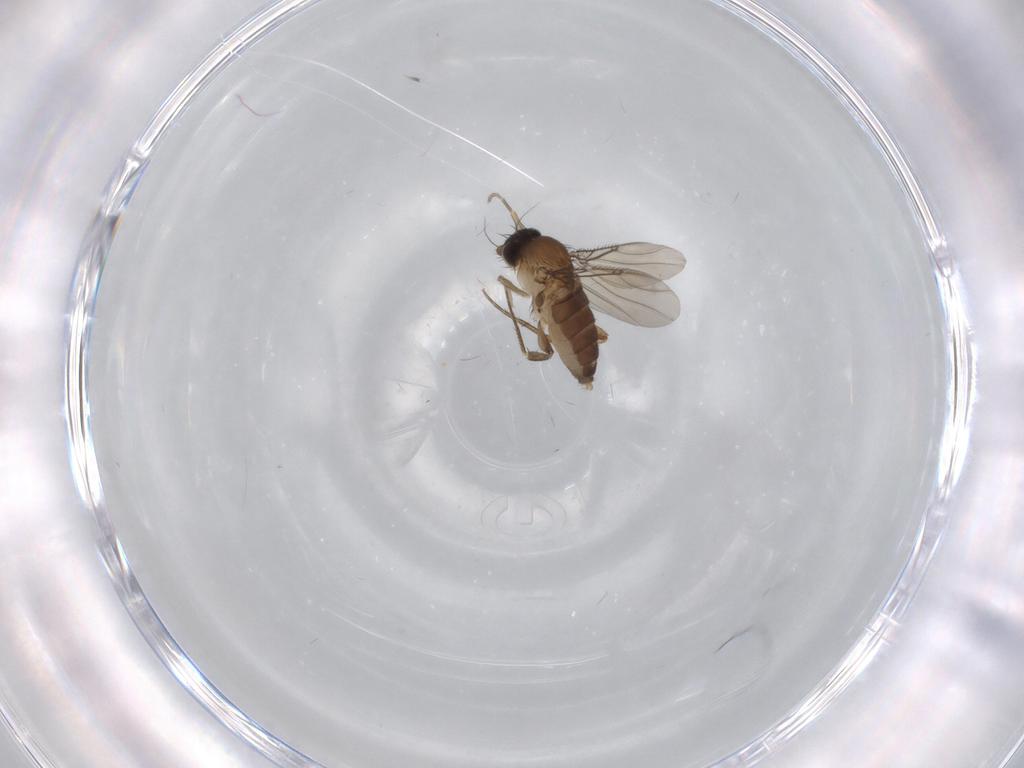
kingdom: Animalia
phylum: Arthropoda
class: Insecta
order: Diptera
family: Phoridae
